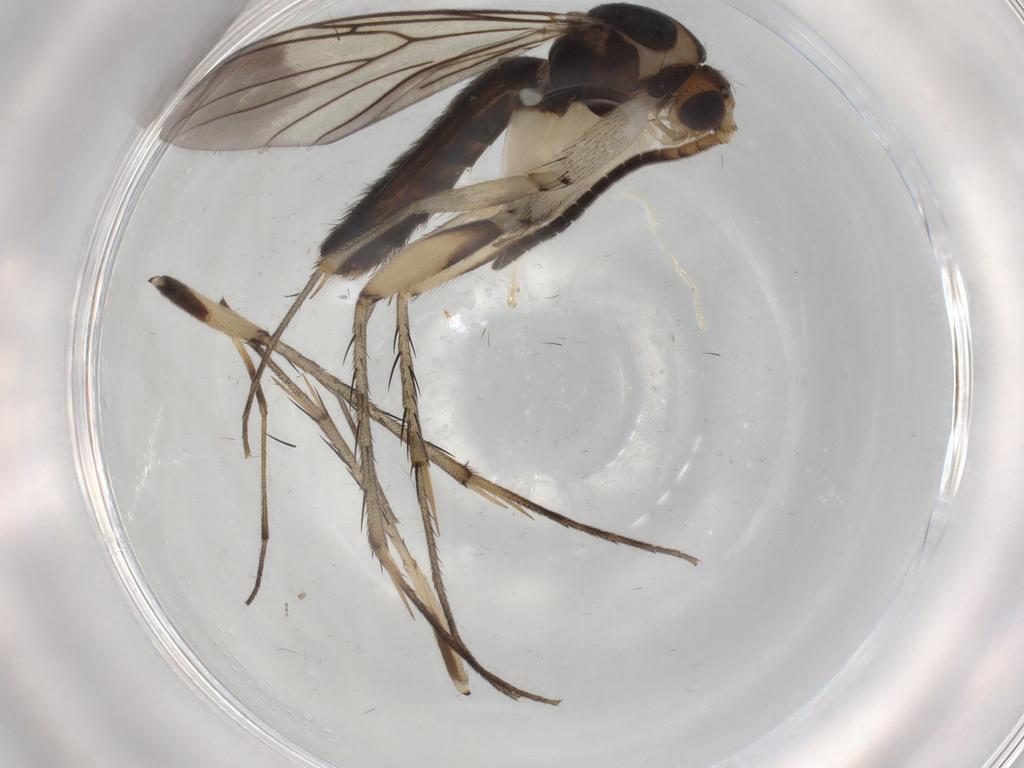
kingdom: Animalia
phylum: Arthropoda
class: Insecta
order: Diptera
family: Mycetophilidae
